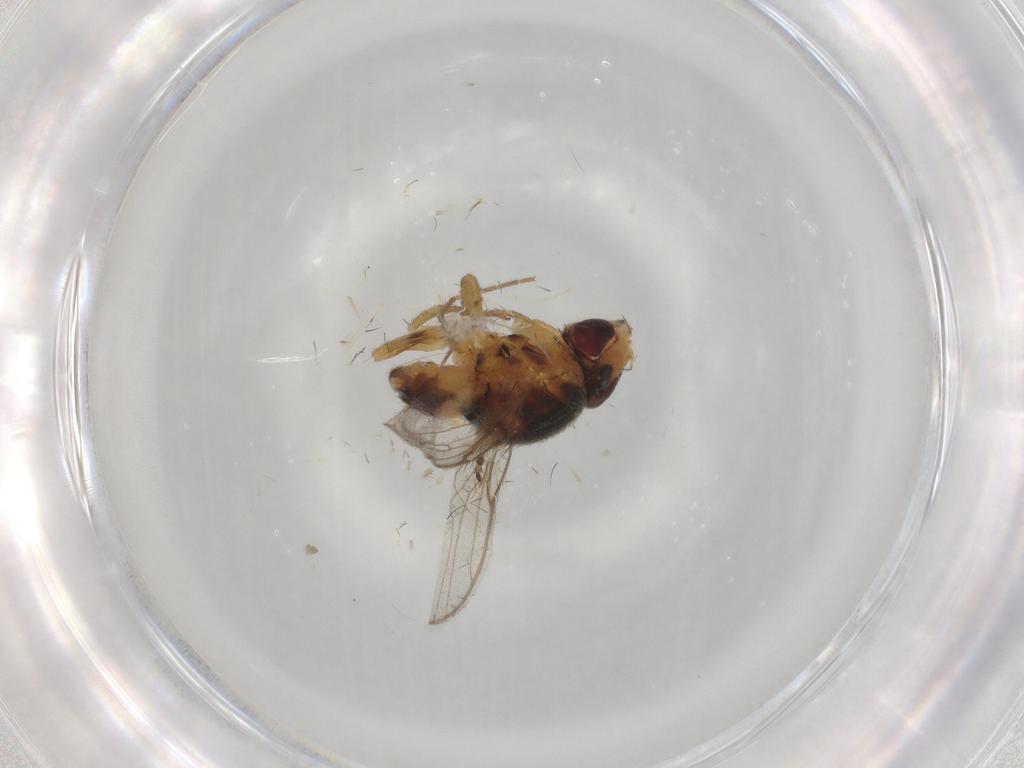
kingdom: Animalia
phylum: Arthropoda
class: Insecta
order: Diptera
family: Chloropidae
